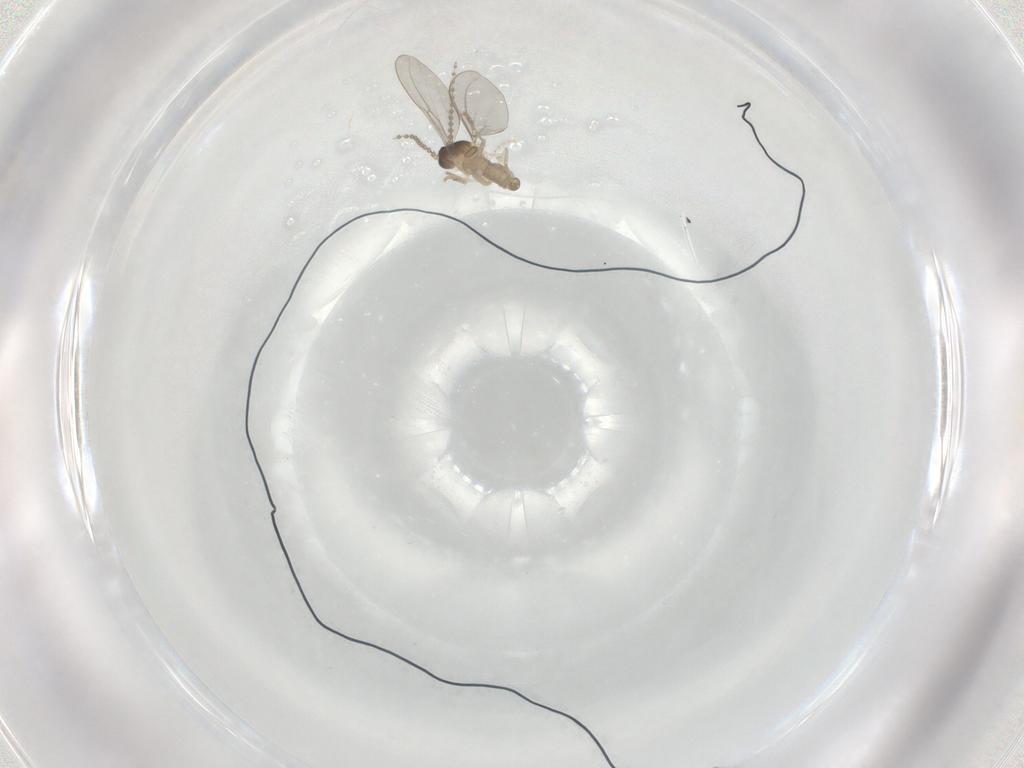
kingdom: Animalia
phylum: Arthropoda
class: Insecta
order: Diptera
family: Cecidomyiidae
